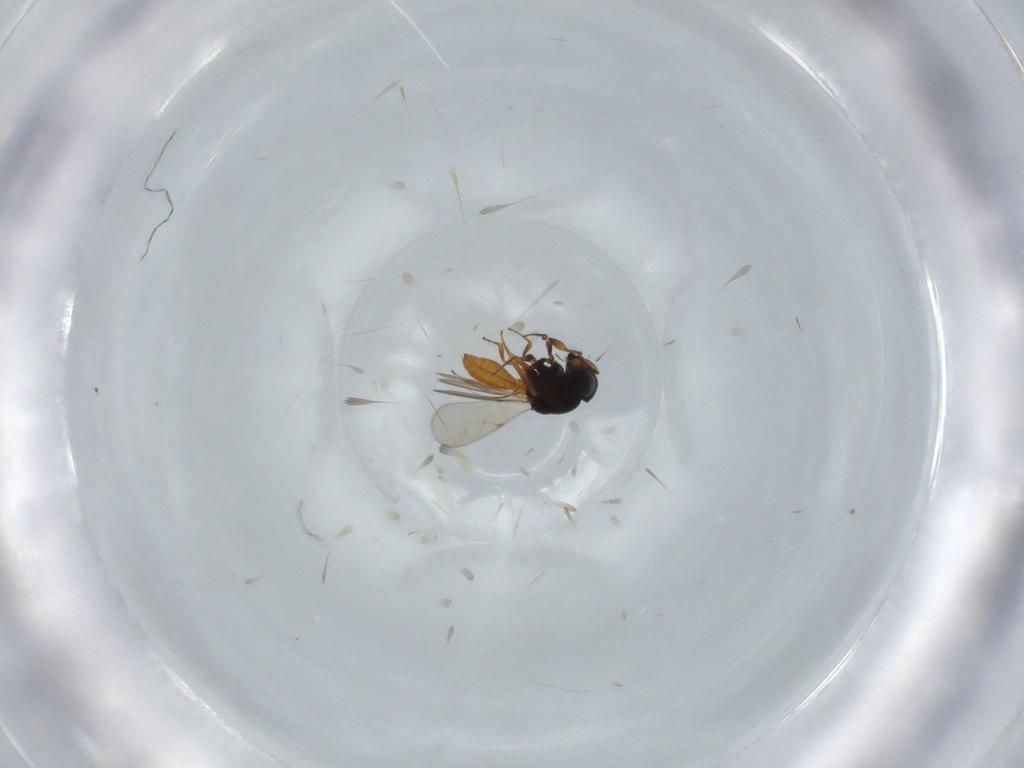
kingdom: Animalia
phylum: Arthropoda
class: Insecta
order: Hymenoptera
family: Scelionidae
